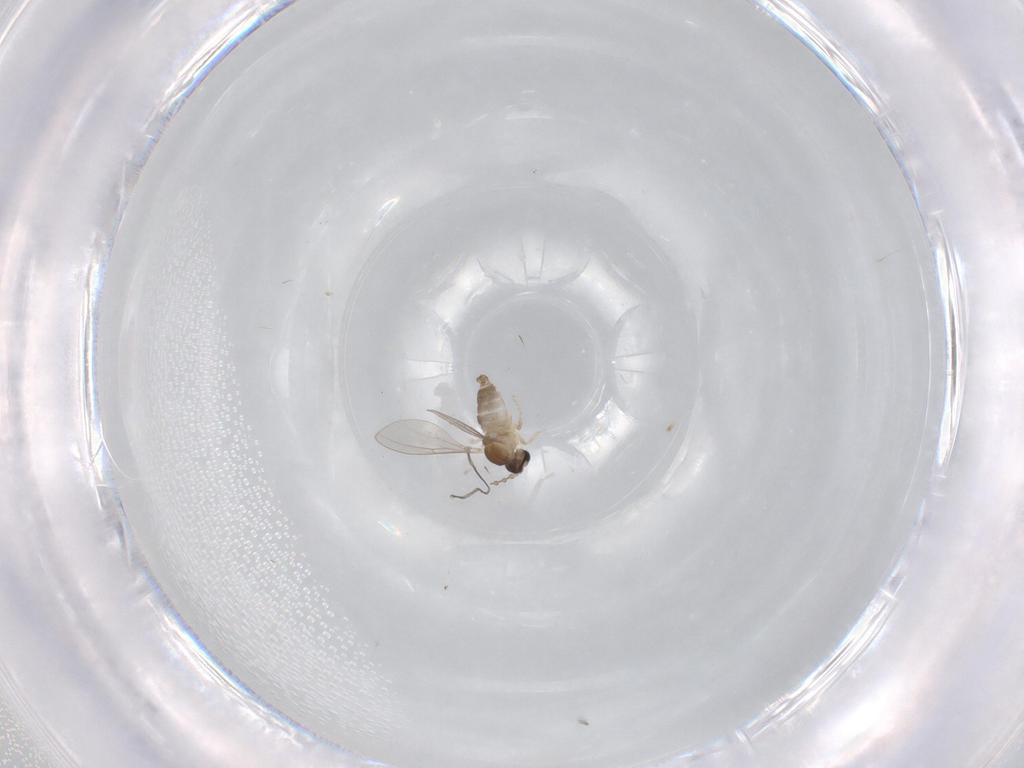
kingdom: Animalia
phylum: Arthropoda
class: Insecta
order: Diptera
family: Cecidomyiidae
